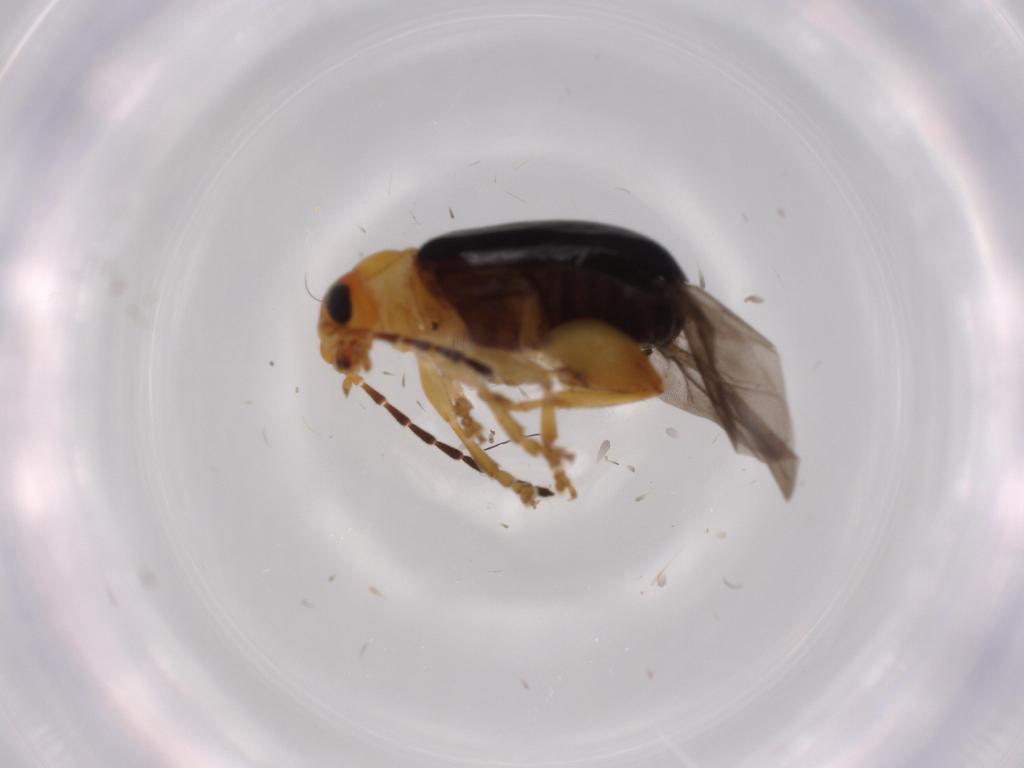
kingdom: Animalia
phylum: Arthropoda
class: Insecta
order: Coleoptera
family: Chrysomelidae
